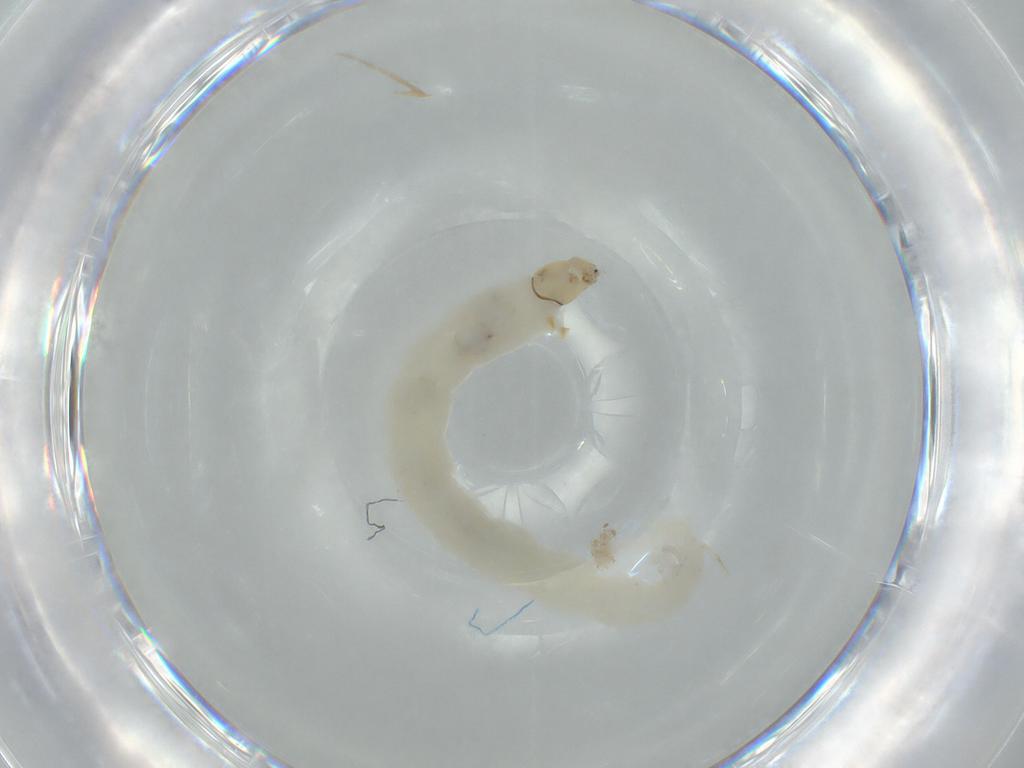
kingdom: Animalia
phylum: Arthropoda
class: Insecta
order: Diptera
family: Chironomidae
